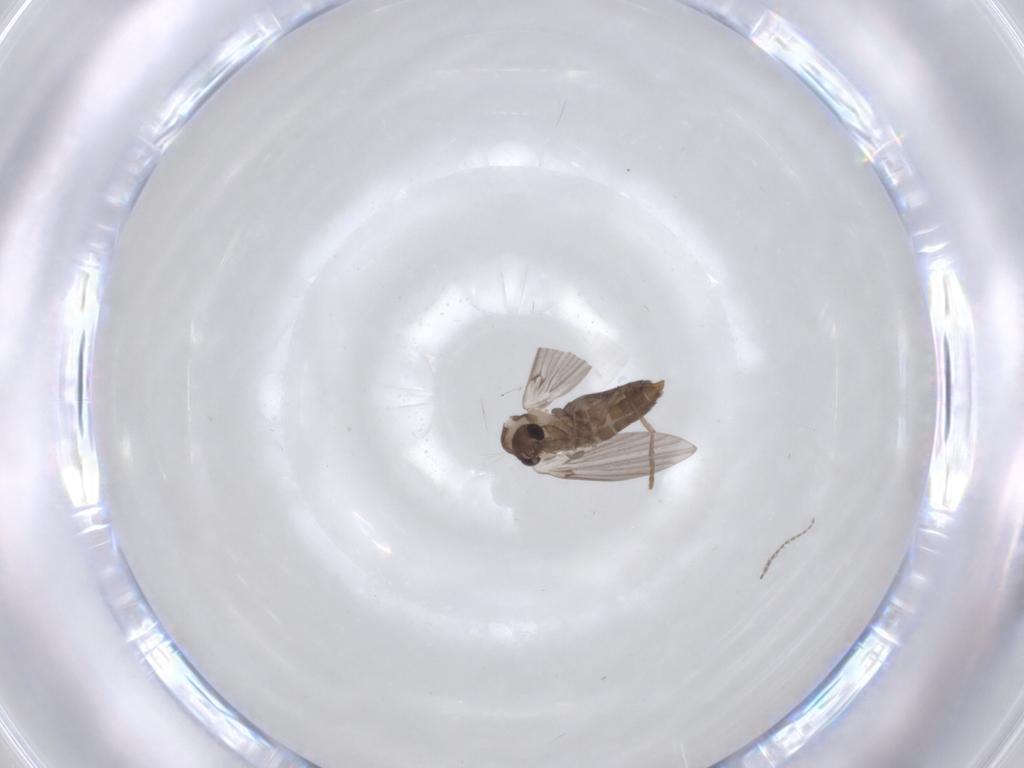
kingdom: Animalia
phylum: Arthropoda
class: Insecta
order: Diptera
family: Psychodidae
